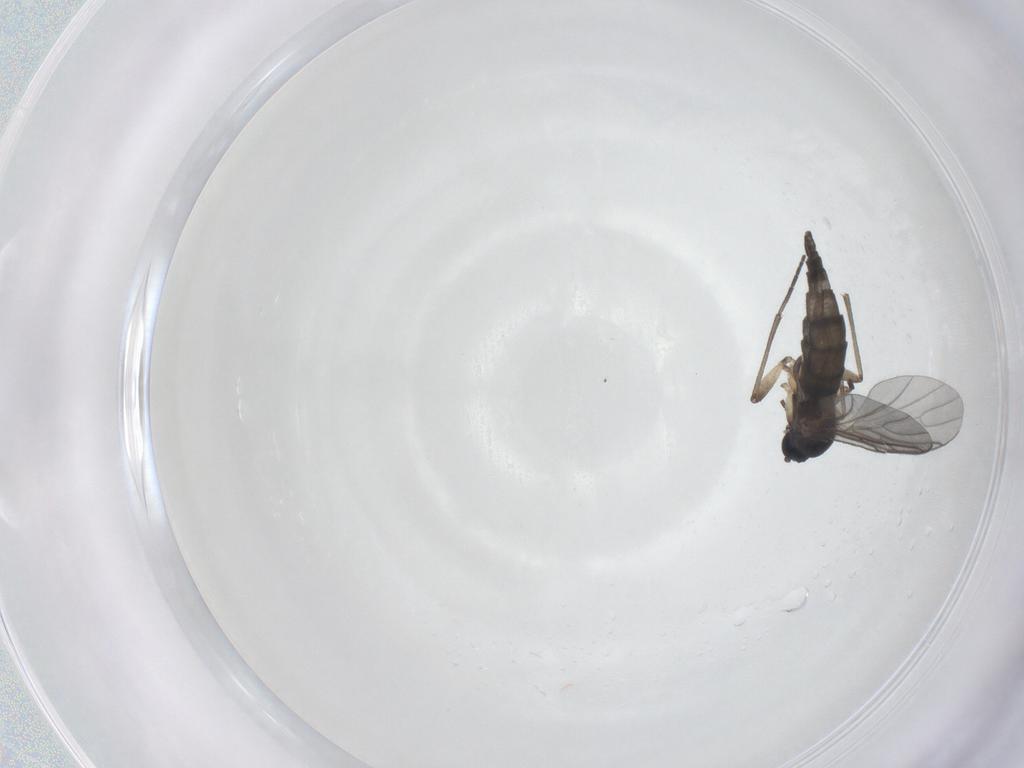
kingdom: Animalia
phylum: Arthropoda
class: Insecta
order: Diptera
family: Sciaridae
